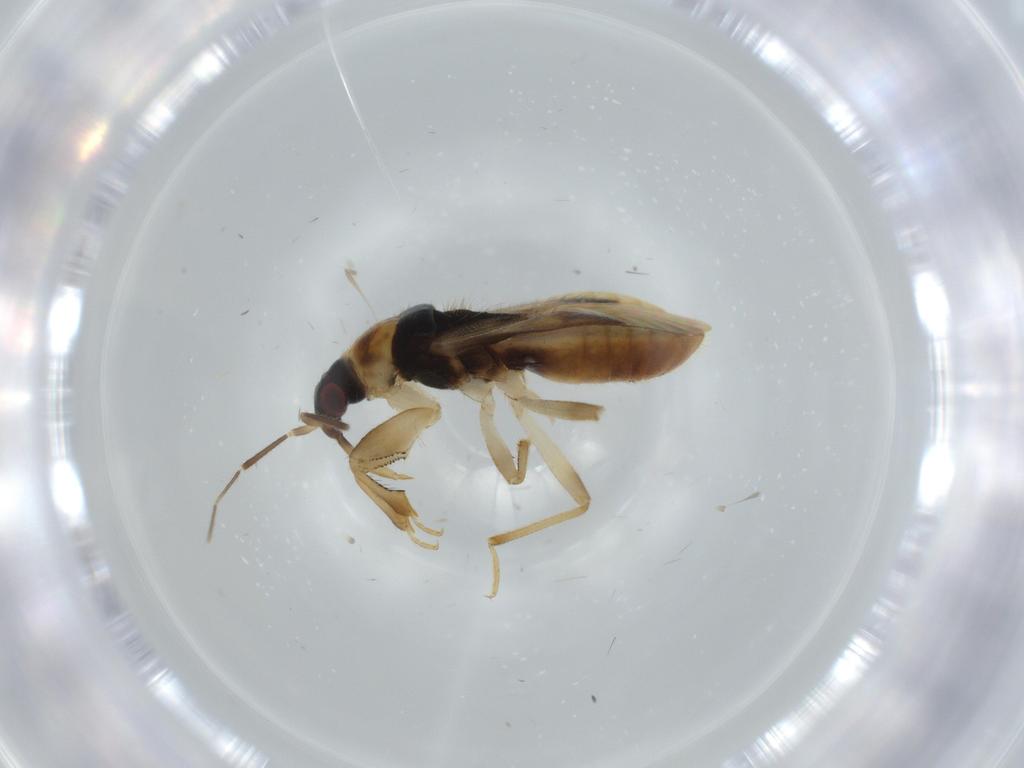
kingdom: Animalia
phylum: Arthropoda
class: Insecta
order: Hemiptera
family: Nabidae
